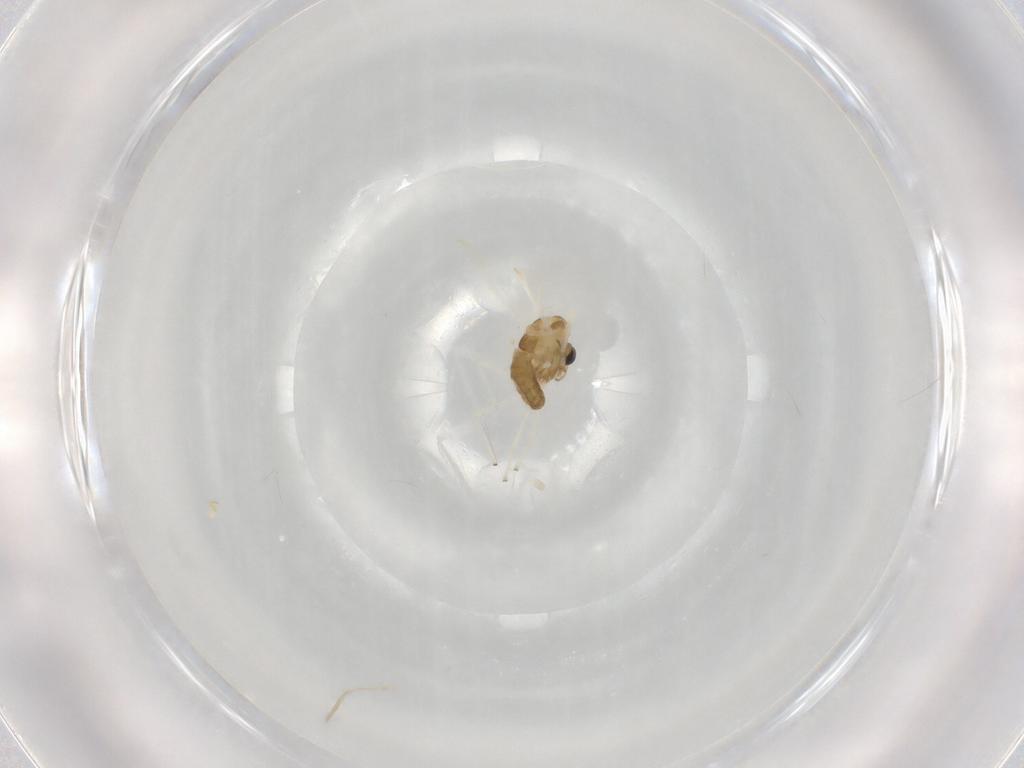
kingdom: Animalia
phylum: Arthropoda
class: Insecta
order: Diptera
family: Chironomidae
